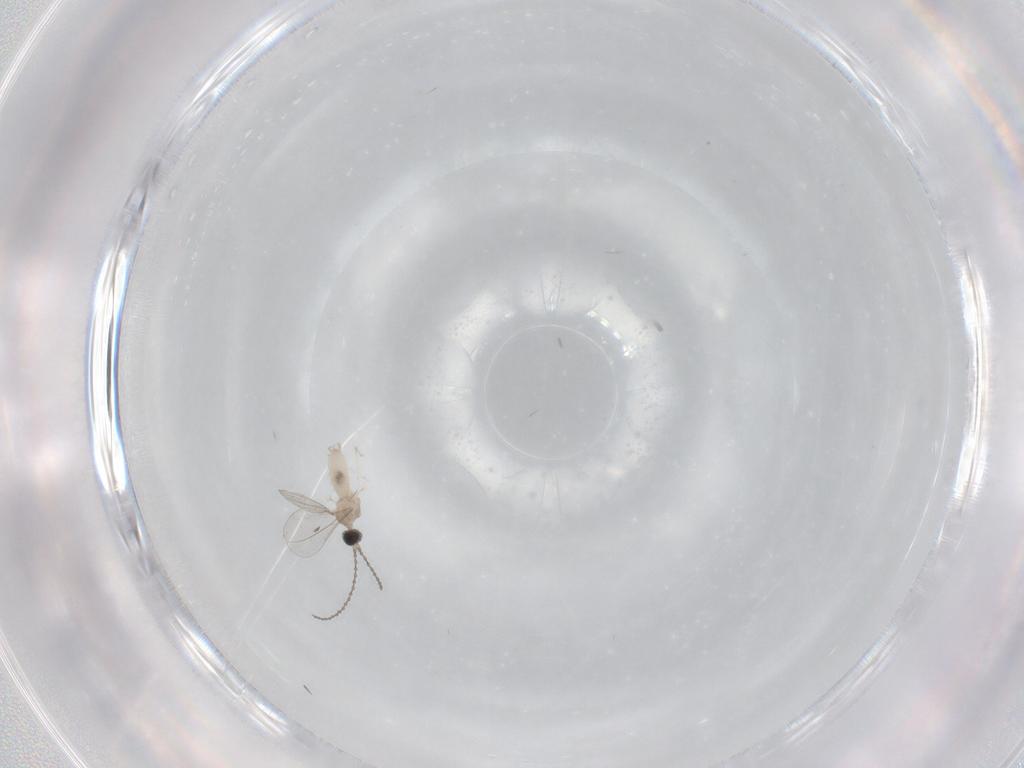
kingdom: Animalia
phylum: Arthropoda
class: Insecta
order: Diptera
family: Cecidomyiidae
